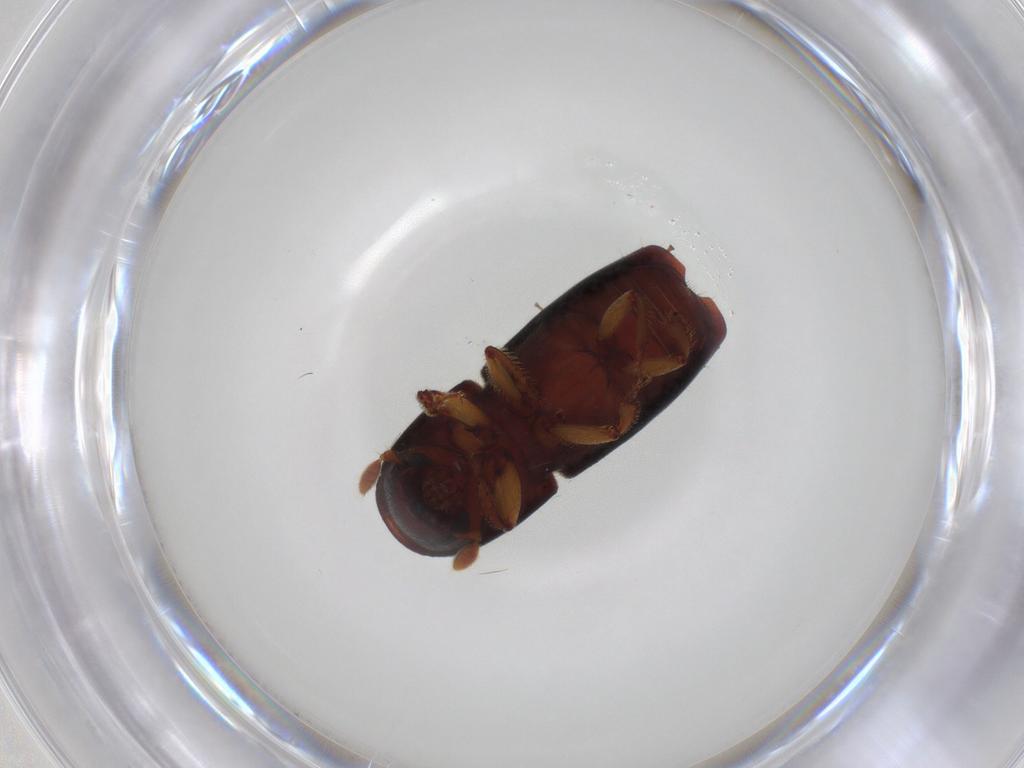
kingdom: Animalia
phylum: Arthropoda
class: Insecta
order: Coleoptera
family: Curculionidae
